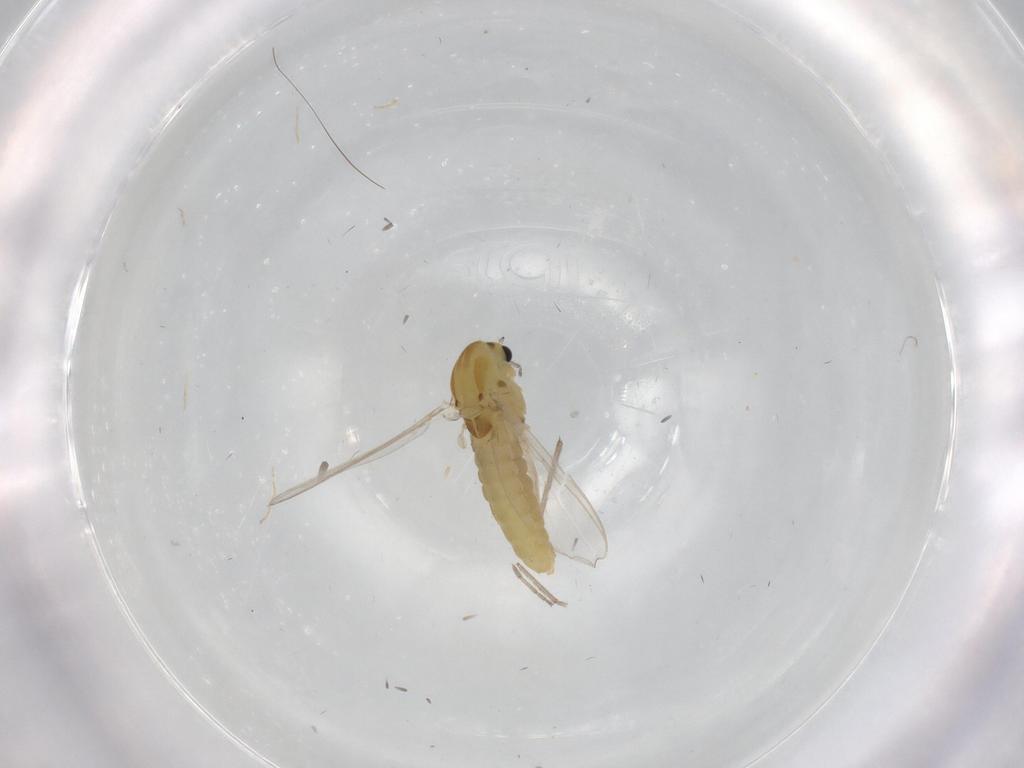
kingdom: Animalia
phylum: Arthropoda
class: Insecta
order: Diptera
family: Chironomidae
